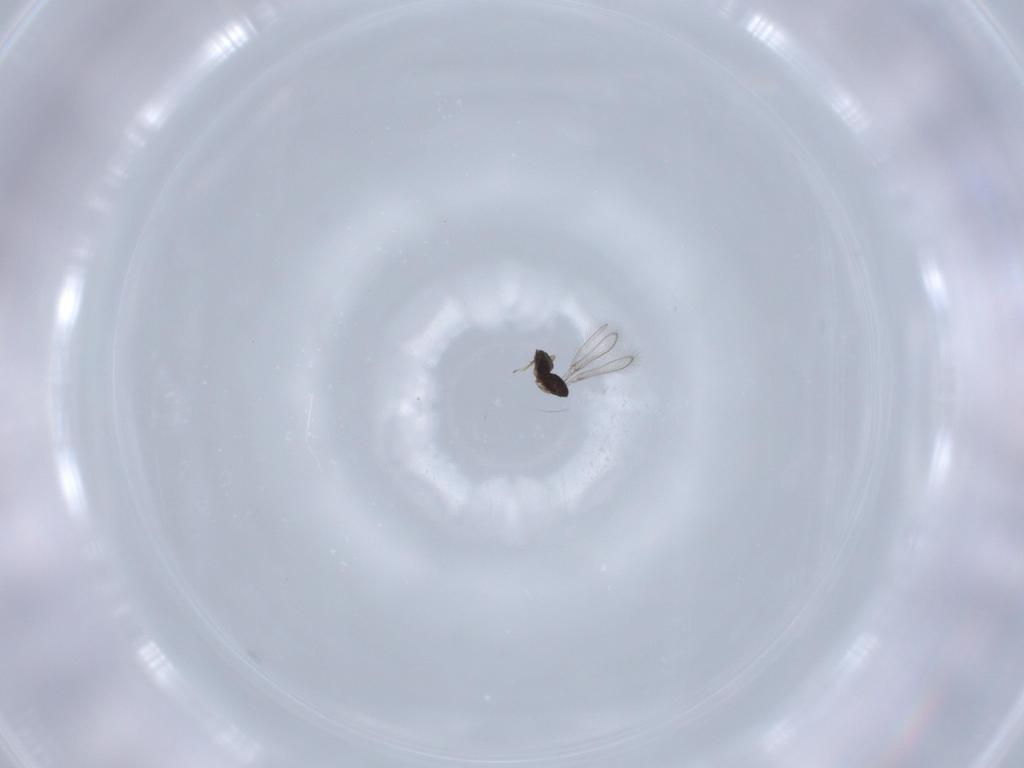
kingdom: Animalia
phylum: Arthropoda
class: Insecta
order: Hymenoptera
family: Mymaridae
